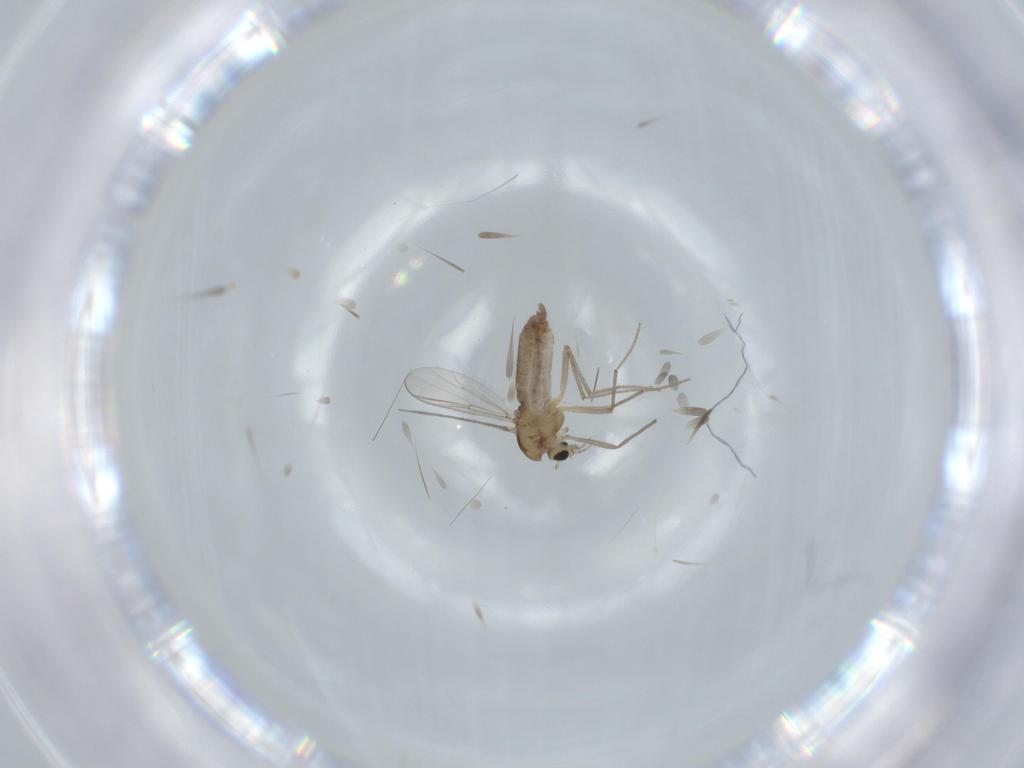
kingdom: Animalia
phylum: Arthropoda
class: Insecta
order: Diptera
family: Chironomidae
